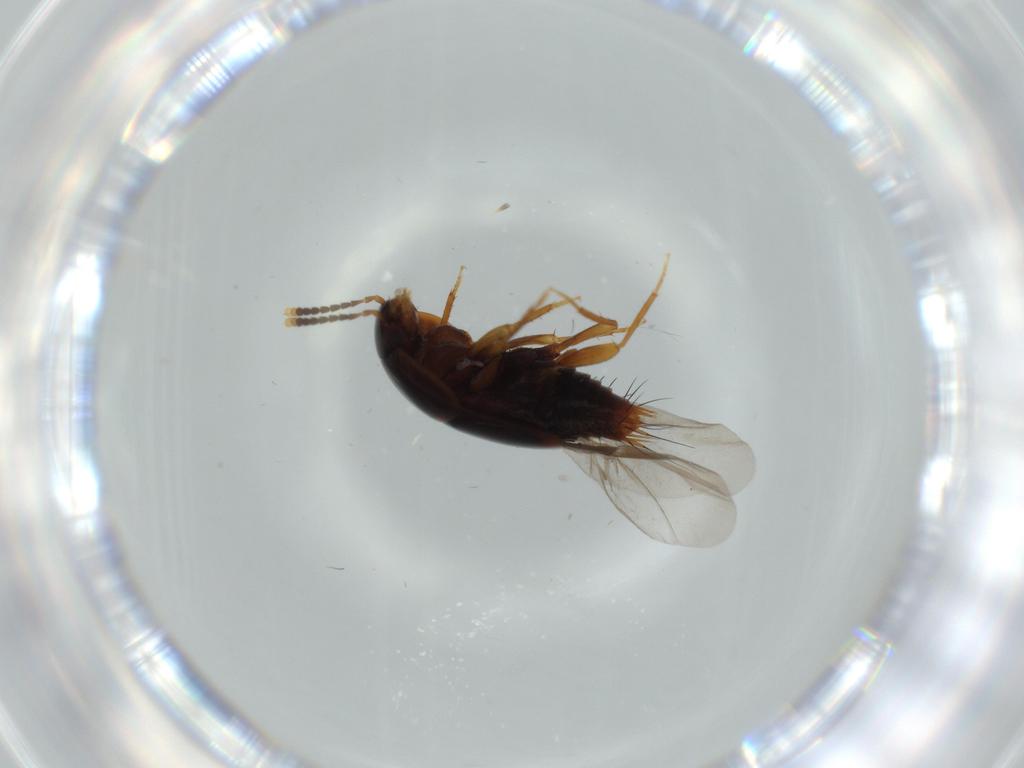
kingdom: Animalia
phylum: Arthropoda
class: Insecta
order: Coleoptera
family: Staphylinidae
